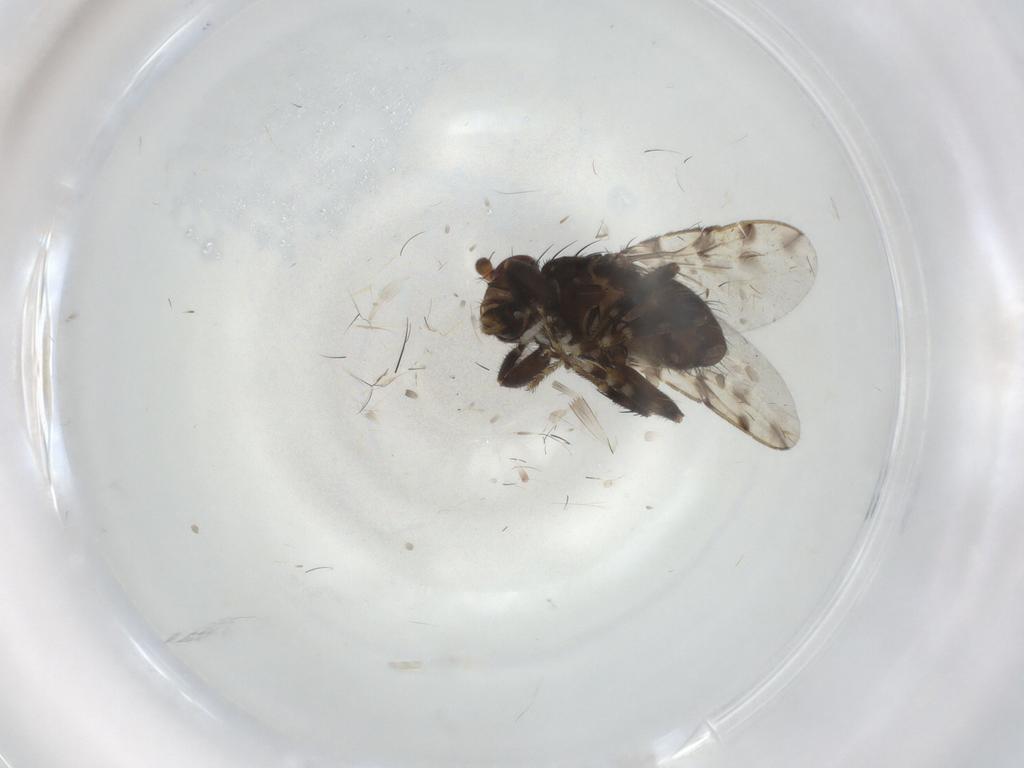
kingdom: Animalia
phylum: Arthropoda
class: Insecta
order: Diptera
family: Sphaeroceridae
